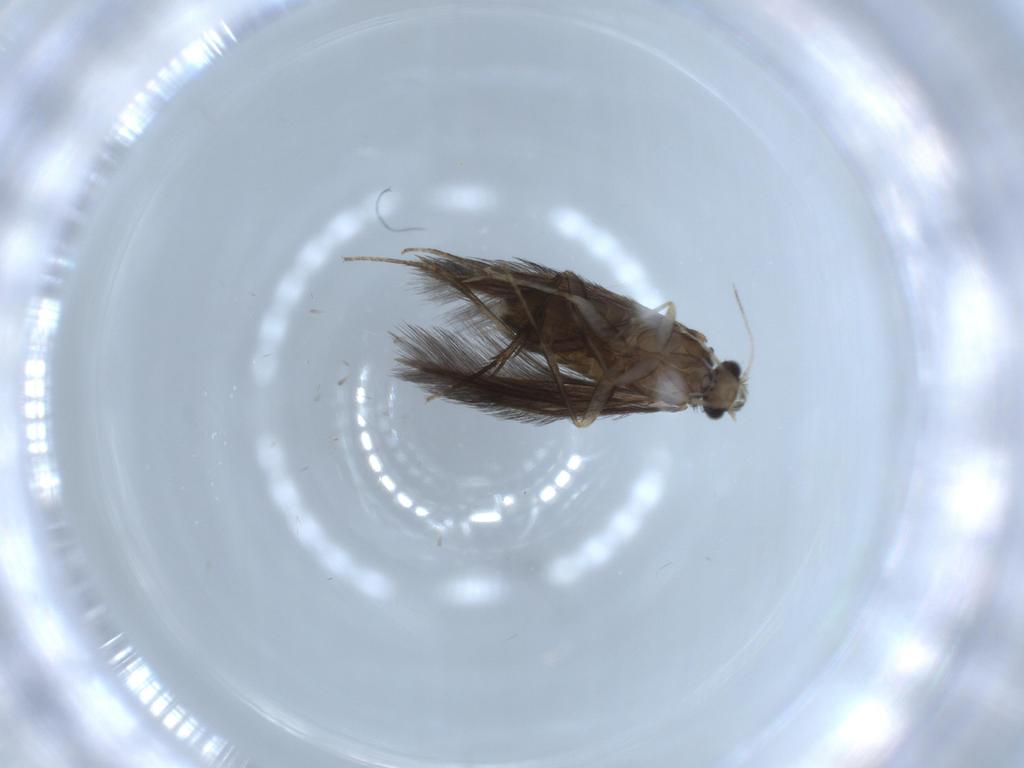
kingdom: Animalia
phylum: Arthropoda
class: Insecta
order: Trichoptera
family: Hydroptilidae
